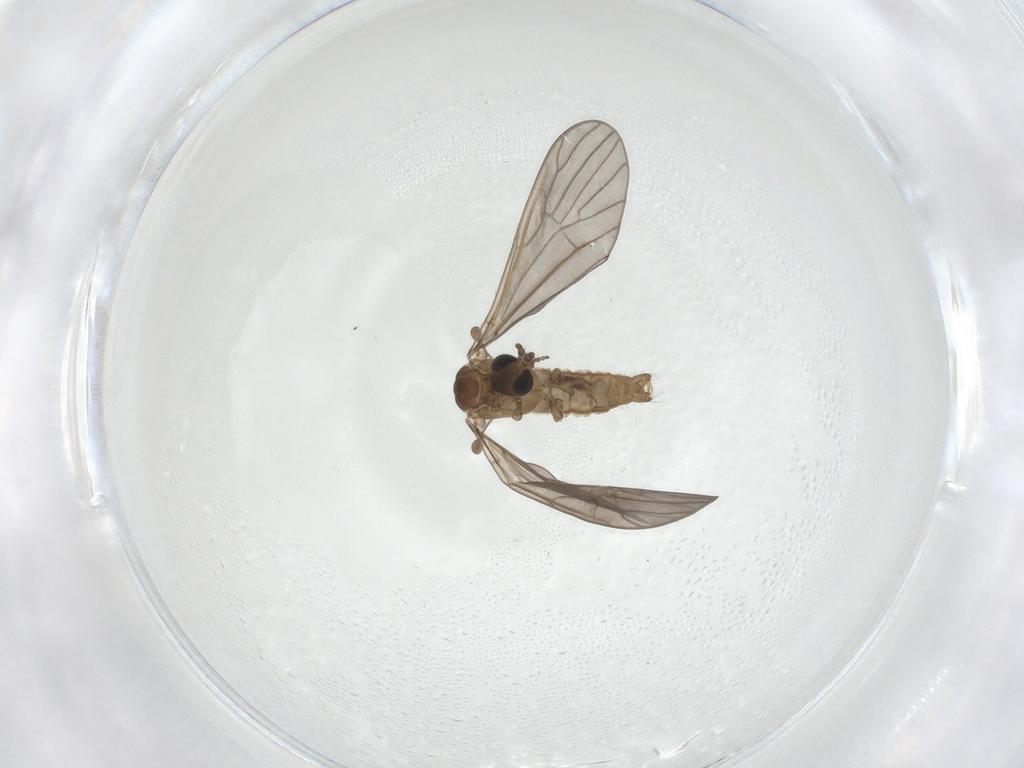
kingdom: Animalia
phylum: Arthropoda
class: Insecta
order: Diptera
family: Limoniidae
